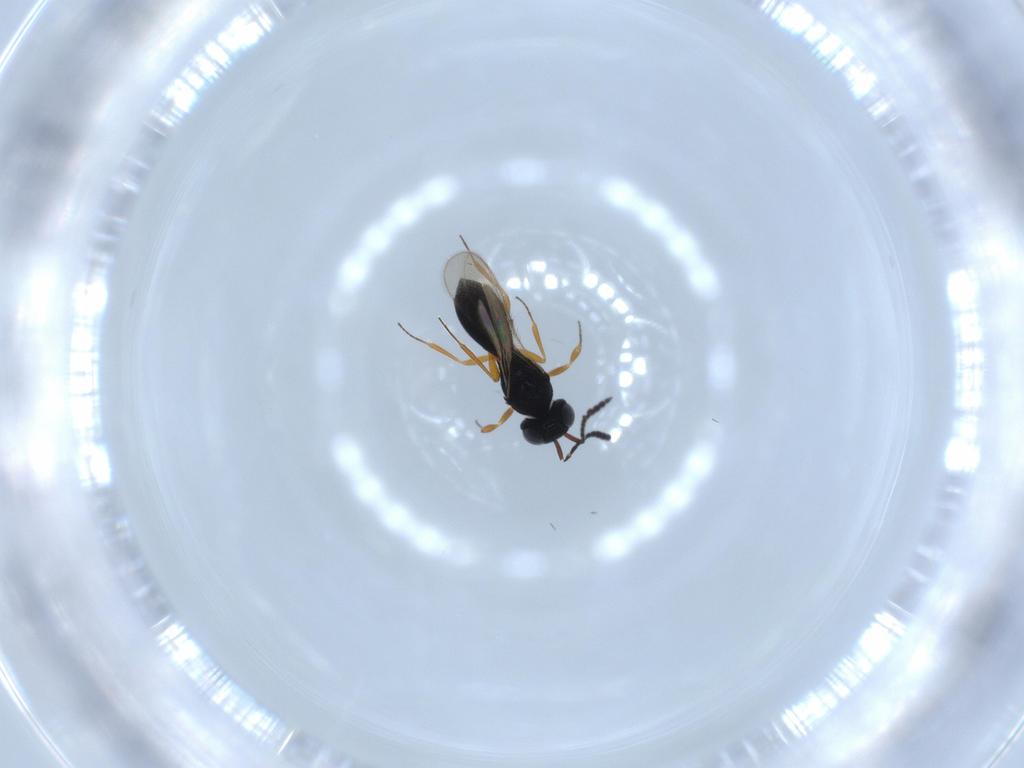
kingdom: Animalia
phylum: Arthropoda
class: Insecta
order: Hymenoptera
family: Scelionidae
